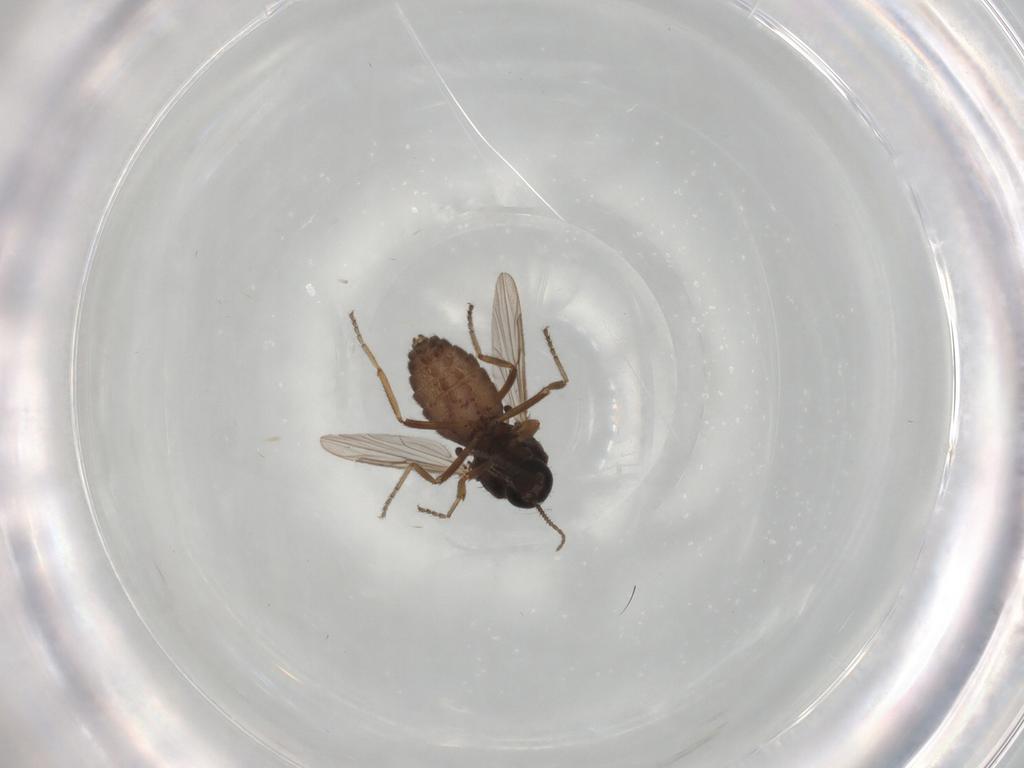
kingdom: Animalia
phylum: Arthropoda
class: Insecta
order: Diptera
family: Ceratopogonidae
